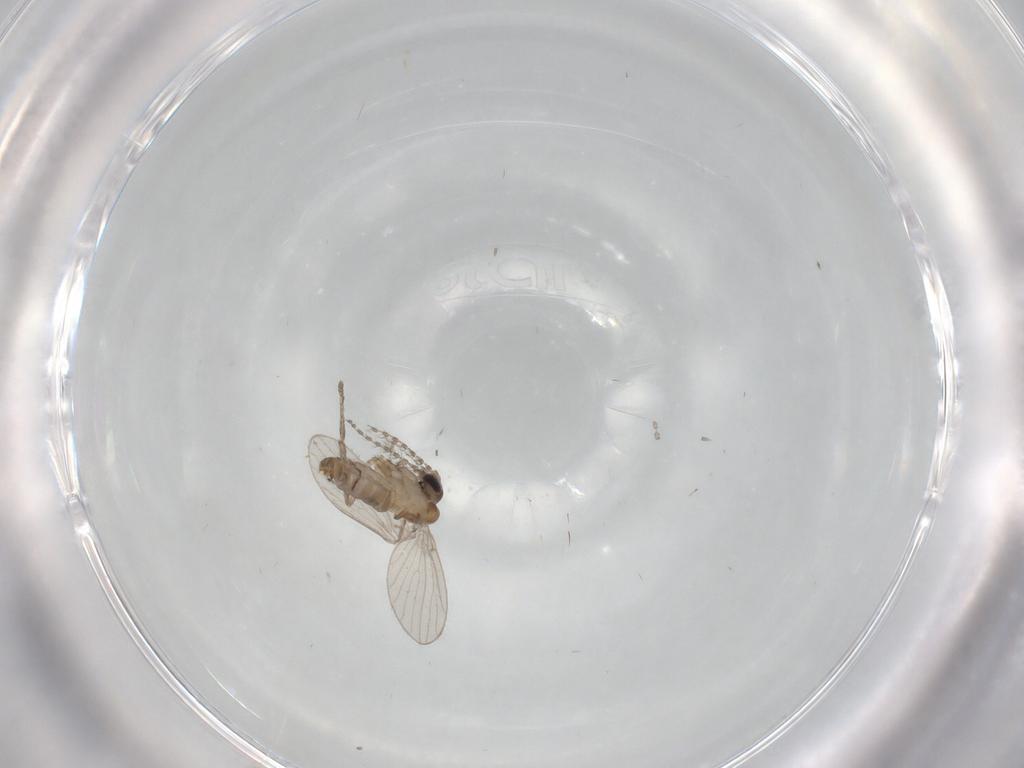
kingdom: Animalia
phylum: Arthropoda
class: Insecta
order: Diptera
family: Psychodidae
